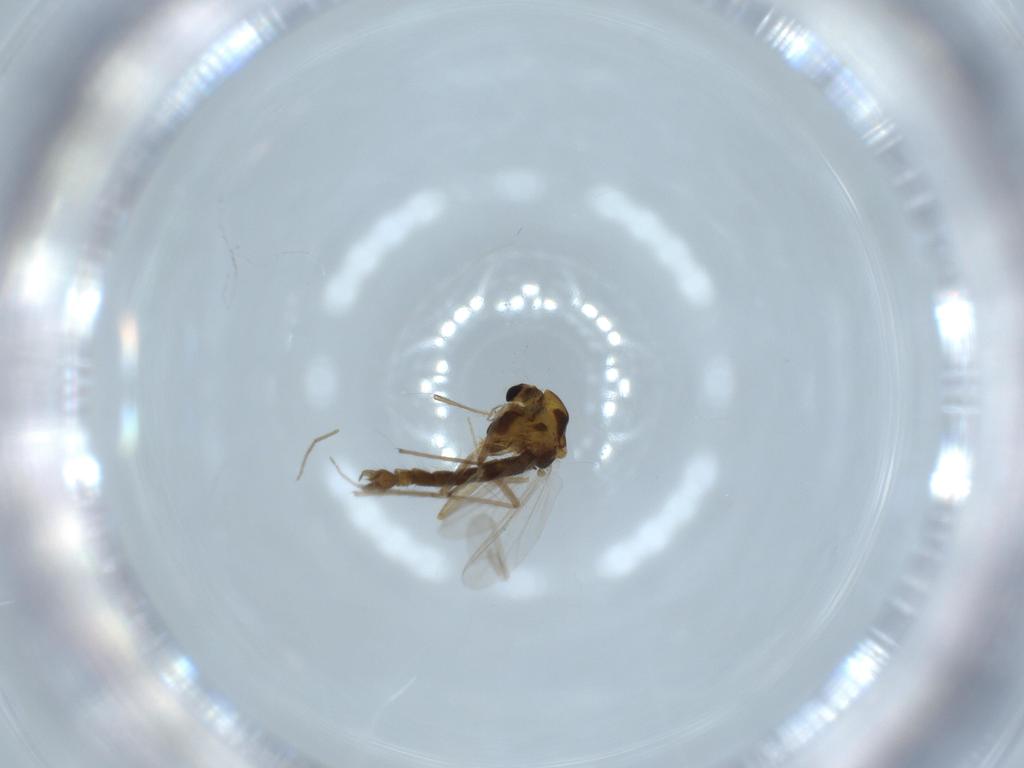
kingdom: Animalia
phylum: Arthropoda
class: Insecta
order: Diptera
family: Chironomidae
